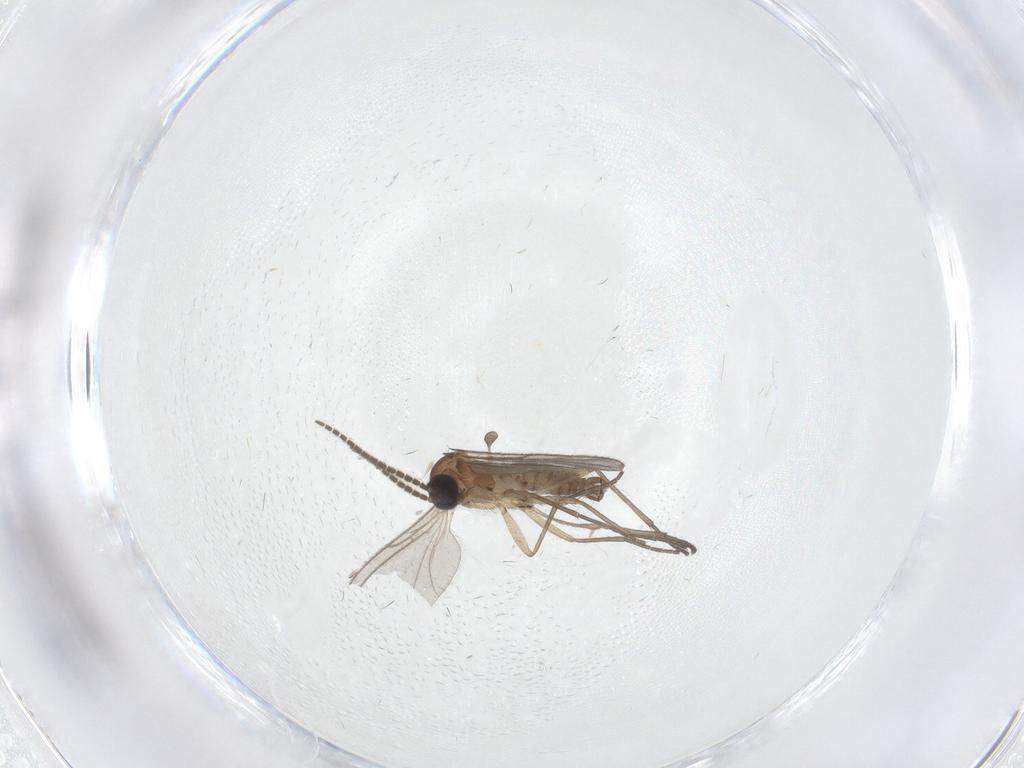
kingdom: Animalia
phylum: Arthropoda
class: Insecta
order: Diptera
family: Sciaridae
